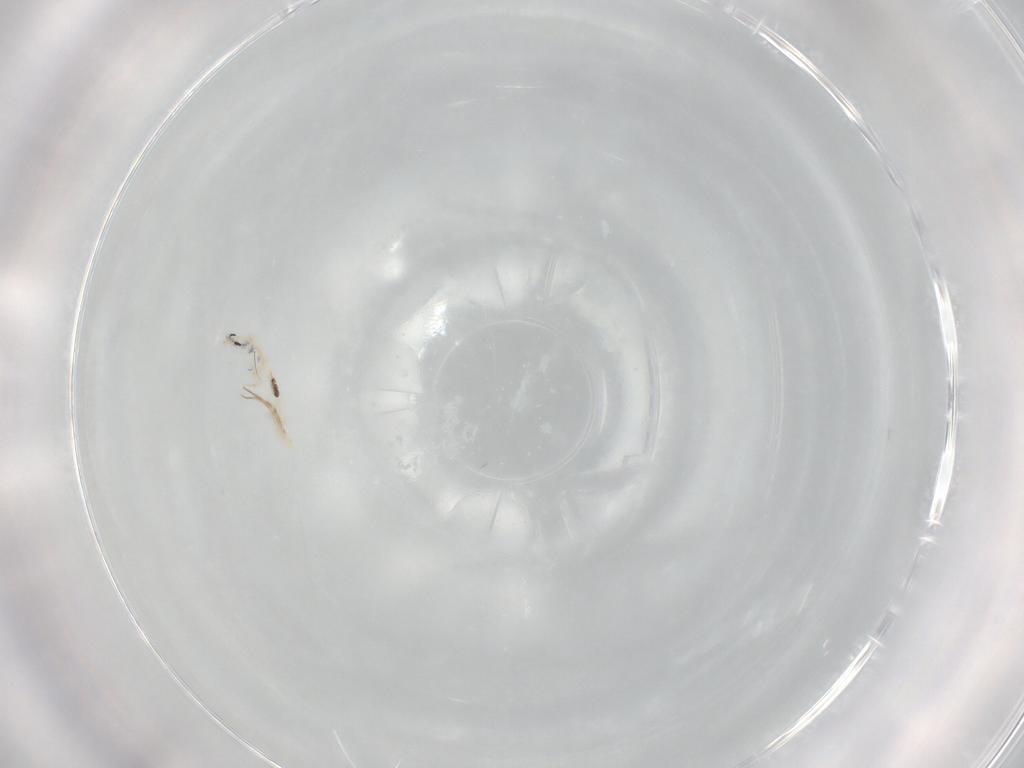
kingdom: Animalia
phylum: Arthropoda
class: Collembola
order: Entomobryomorpha
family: Entomobryidae
